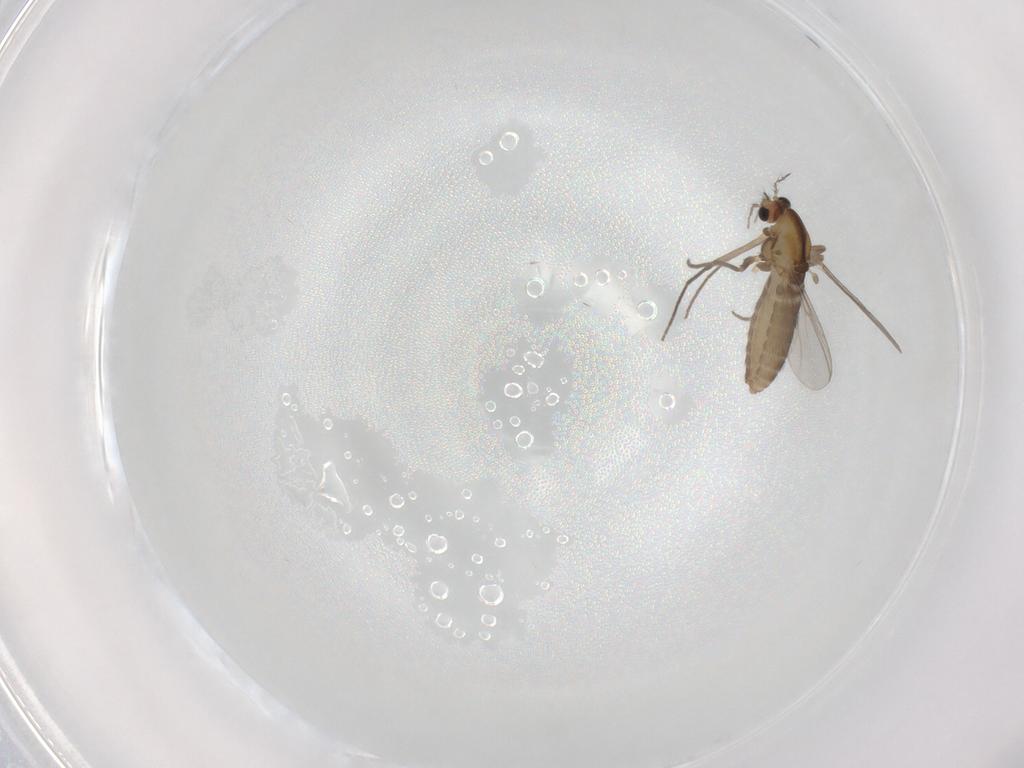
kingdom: Animalia
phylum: Arthropoda
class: Insecta
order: Diptera
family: Chironomidae
